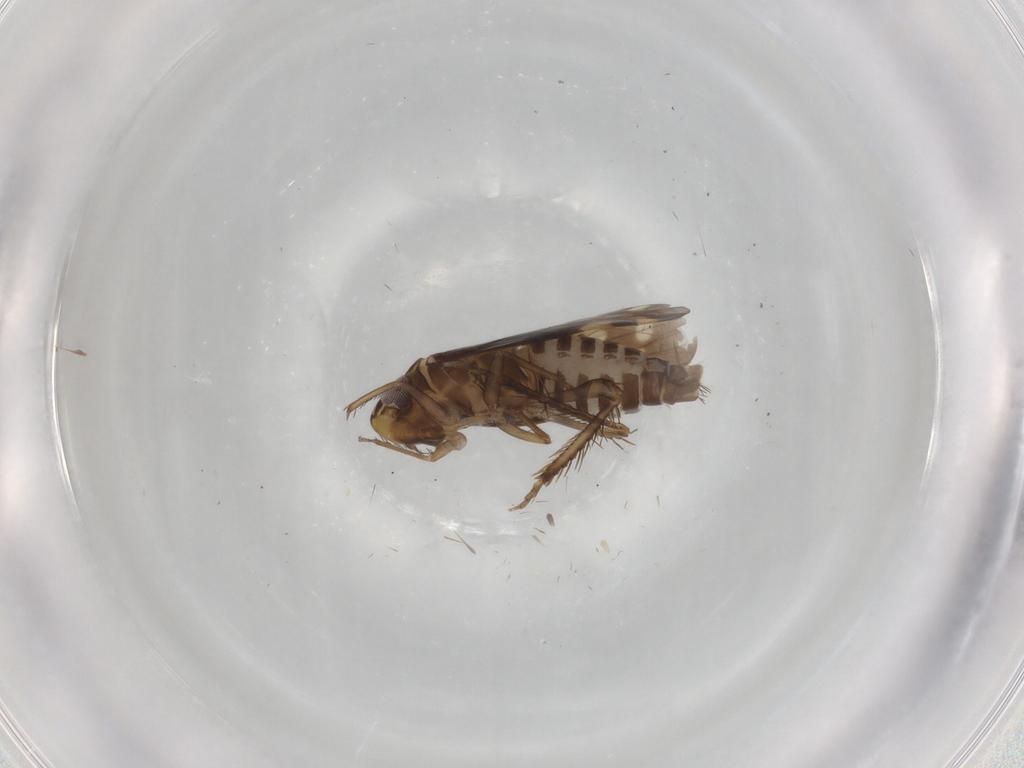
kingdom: Animalia
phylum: Arthropoda
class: Insecta
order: Hemiptera
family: Cicadellidae
